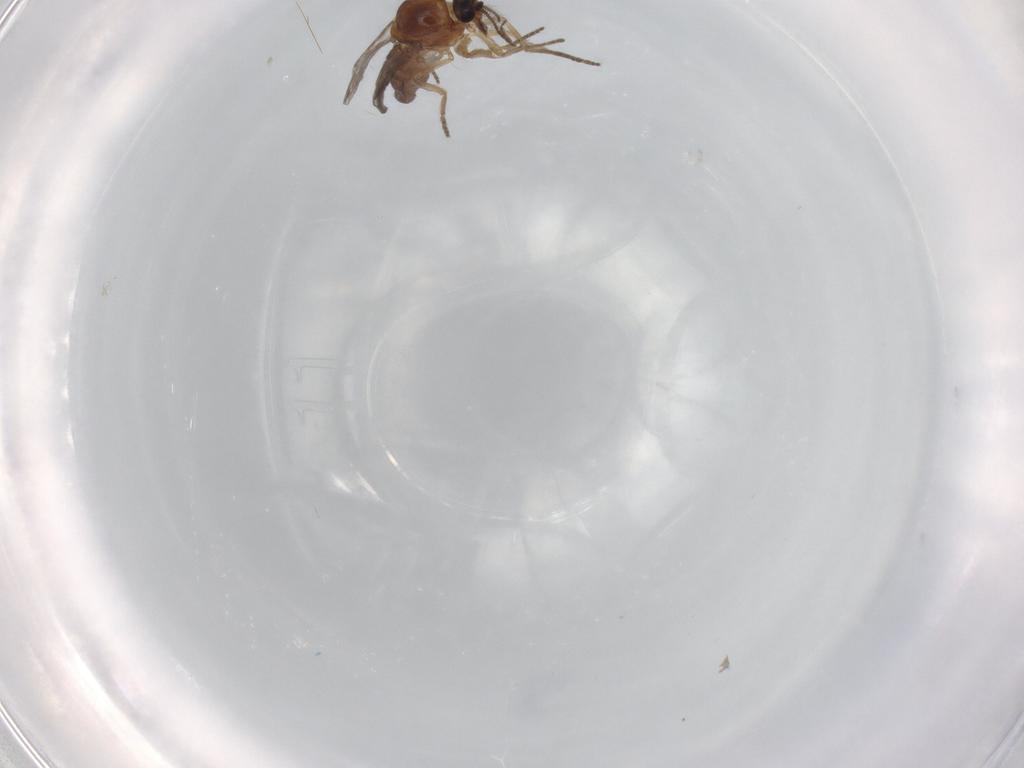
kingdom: Animalia
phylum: Arthropoda
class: Insecta
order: Diptera
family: Ceratopogonidae
